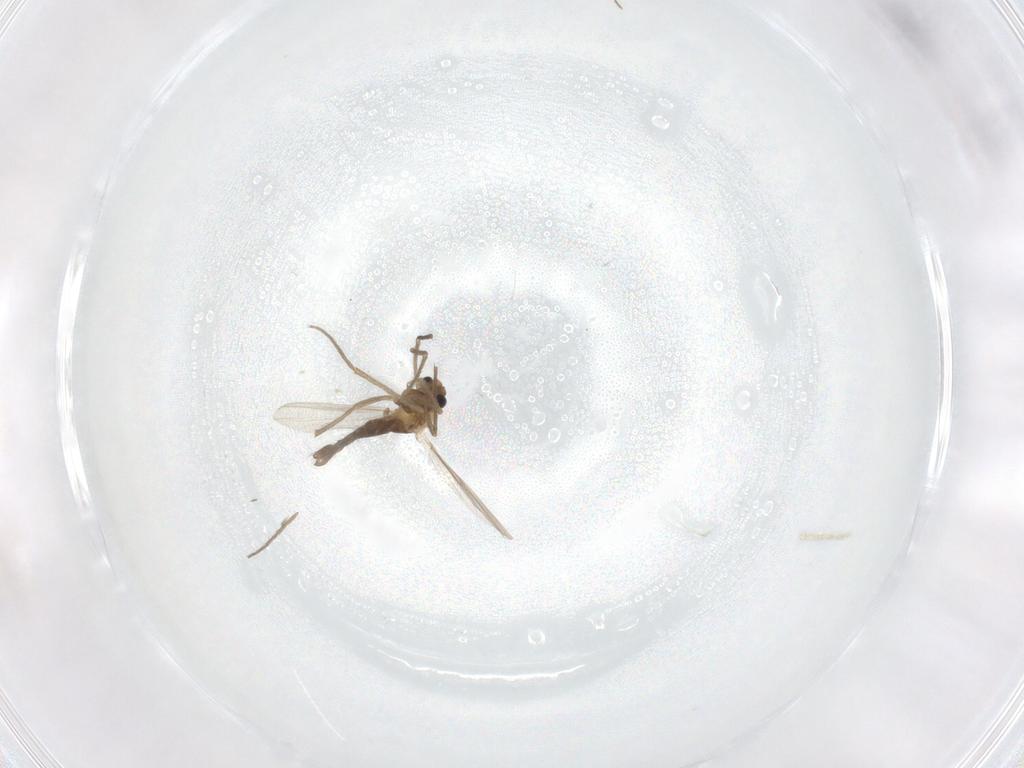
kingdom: Animalia
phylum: Arthropoda
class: Insecta
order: Diptera
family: Chironomidae
